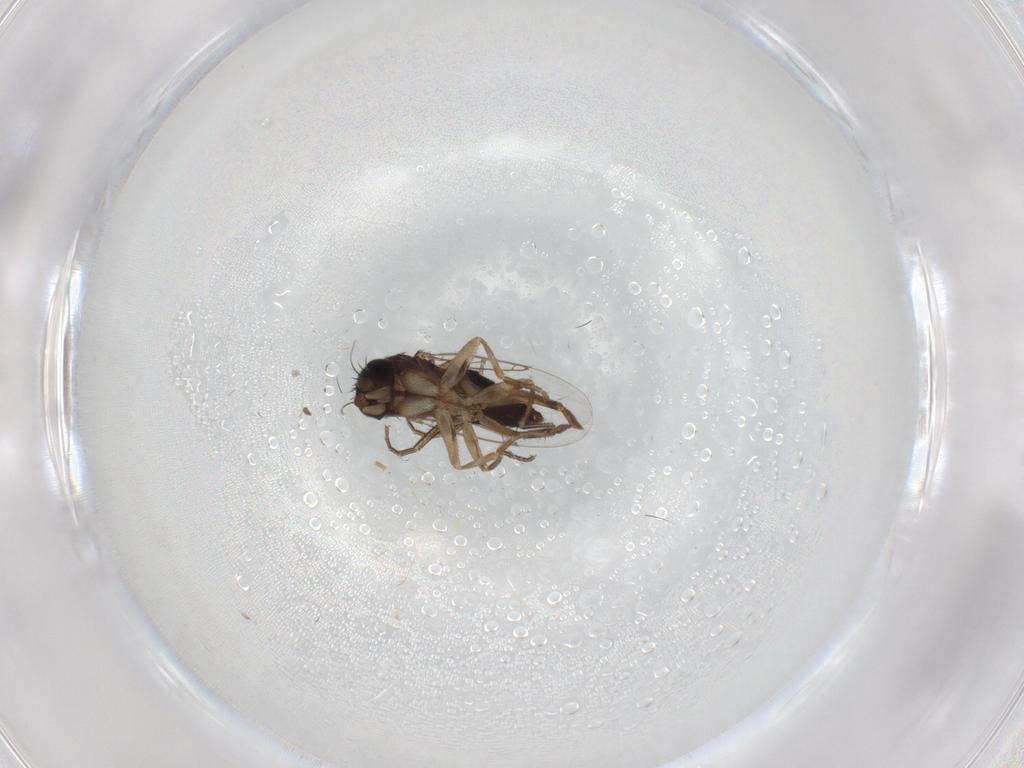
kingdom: Animalia
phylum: Arthropoda
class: Insecta
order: Diptera
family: Phoridae
